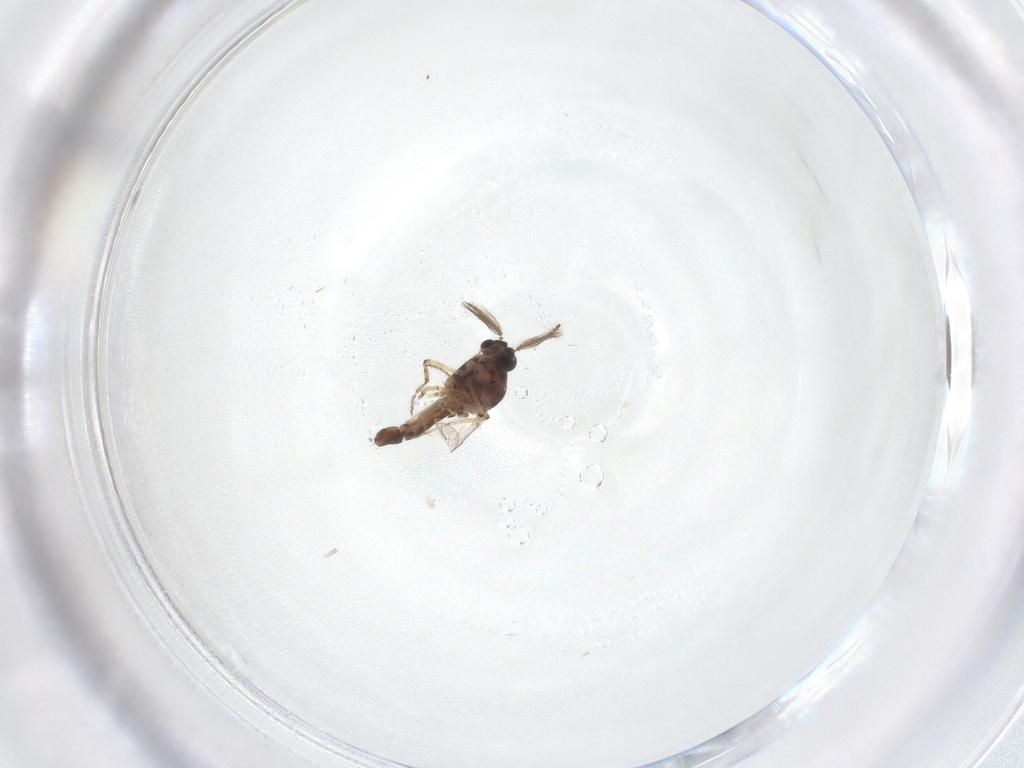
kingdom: Animalia
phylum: Arthropoda
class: Insecta
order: Diptera
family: Ceratopogonidae
